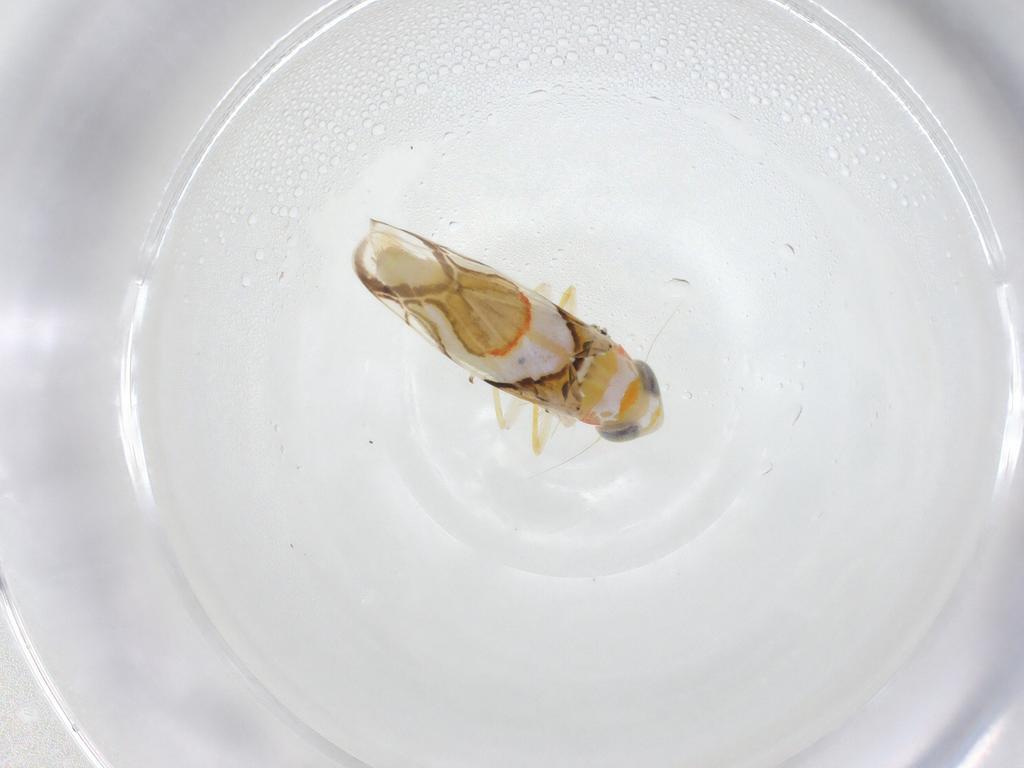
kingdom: Animalia
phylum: Arthropoda
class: Insecta
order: Hemiptera
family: Cicadellidae
